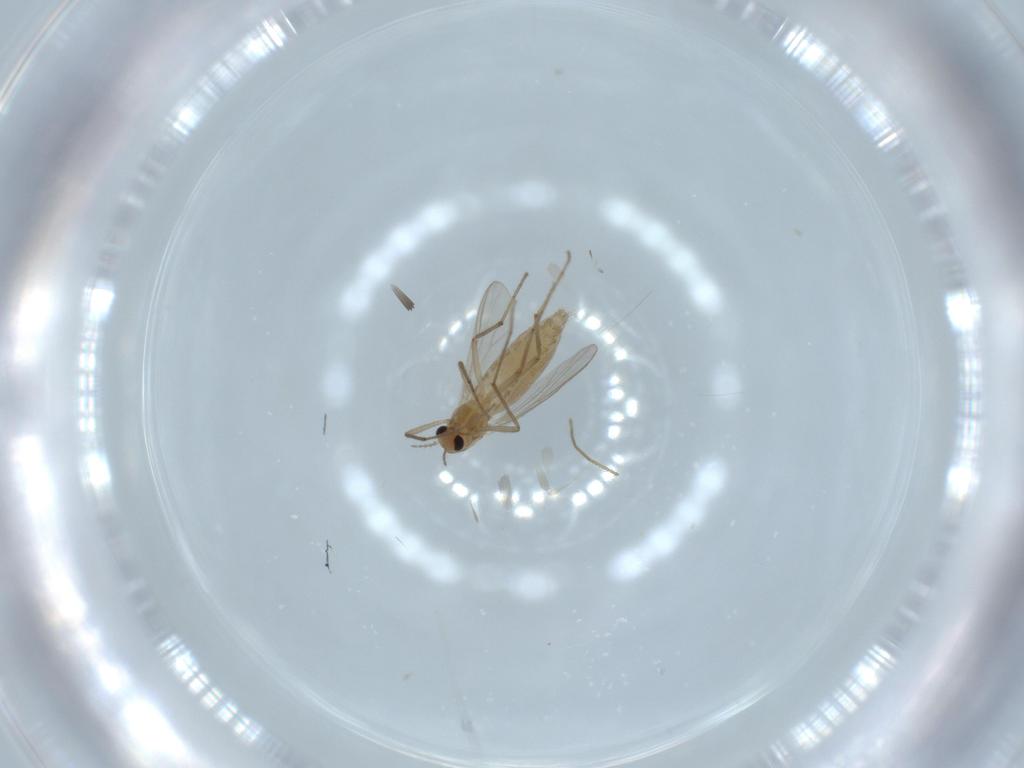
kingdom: Animalia
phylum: Arthropoda
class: Insecta
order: Diptera
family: Chironomidae
